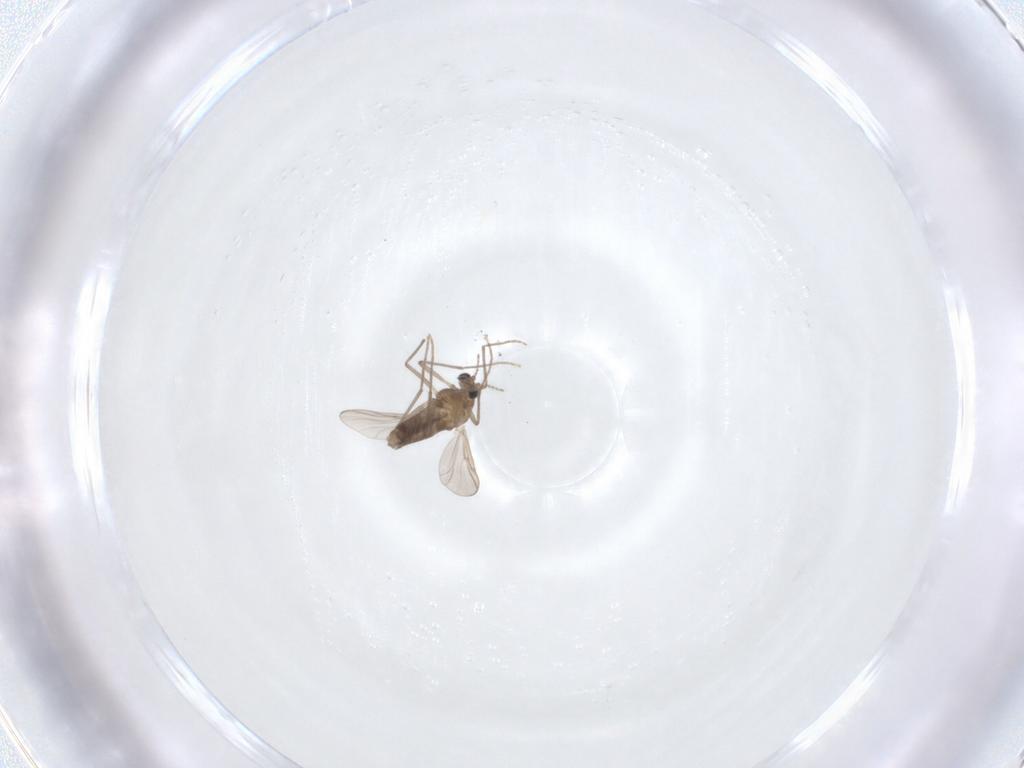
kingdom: Animalia
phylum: Arthropoda
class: Insecta
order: Diptera
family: Chironomidae
